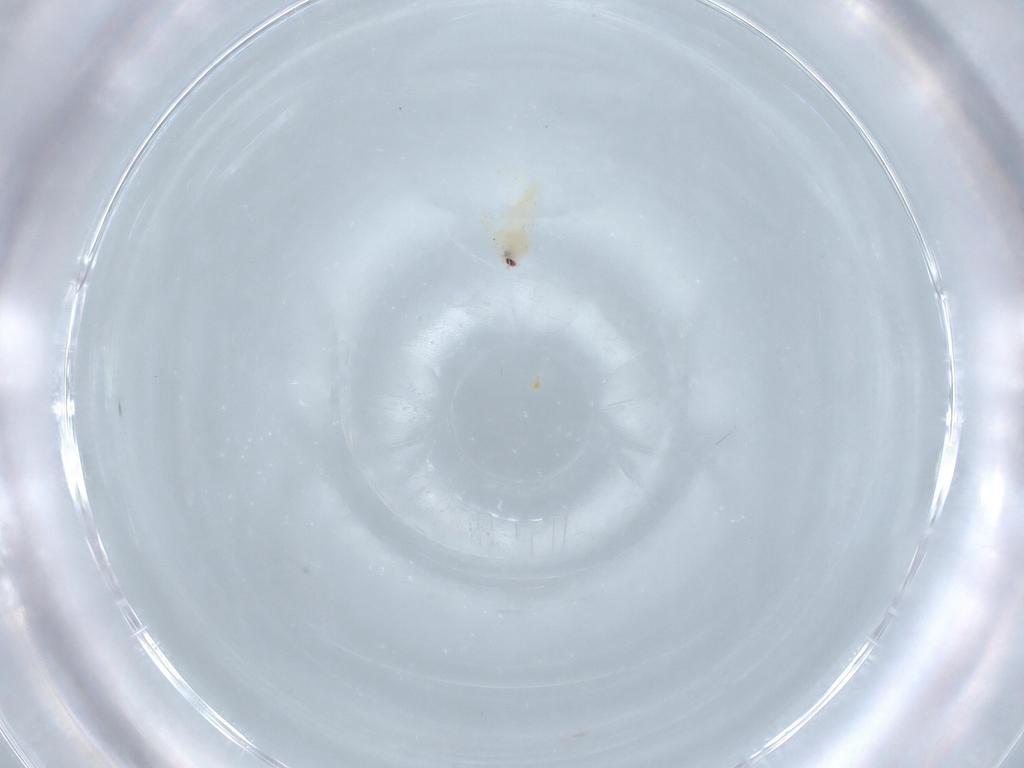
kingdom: Animalia
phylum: Arthropoda
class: Insecta
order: Hemiptera
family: Aleyrodidae
